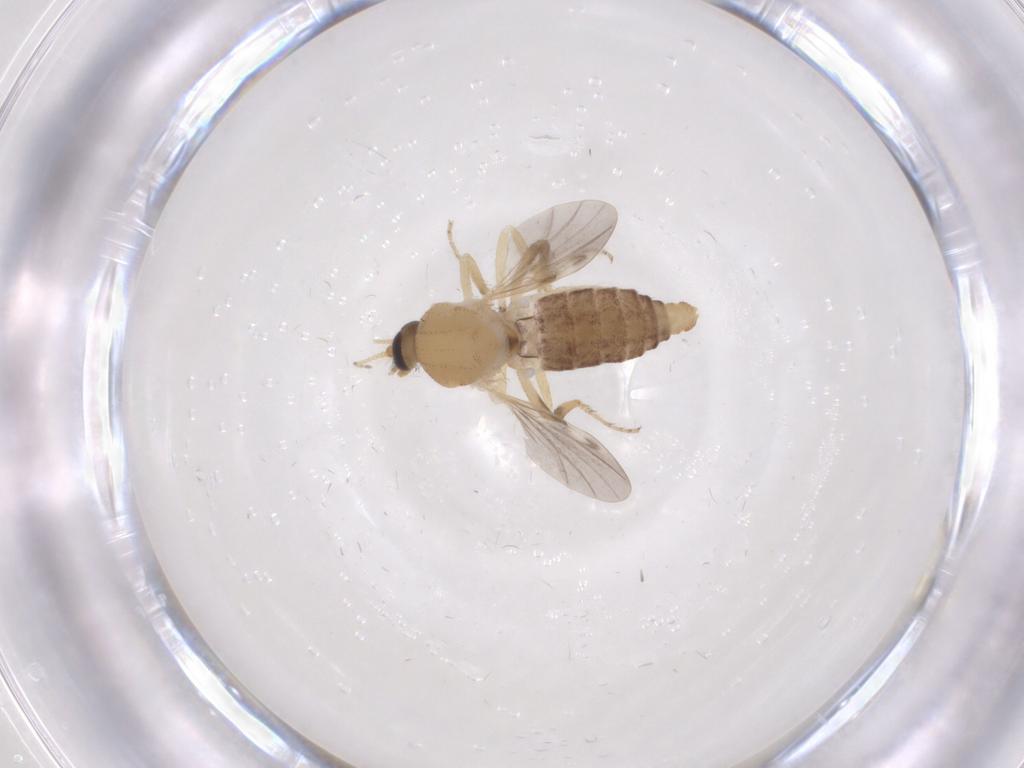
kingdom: Animalia
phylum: Arthropoda
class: Insecta
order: Diptera
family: Ceratopogonidae
